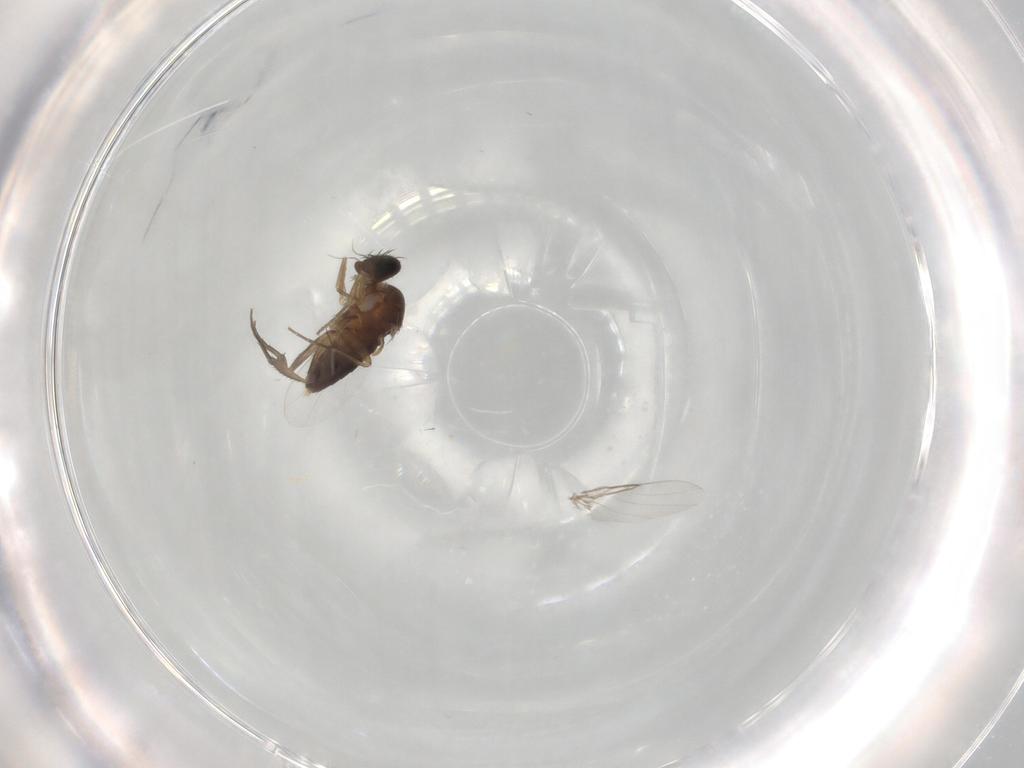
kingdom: Animalia
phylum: Arthropoda
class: Insecta
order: Diptera
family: Phoridae
